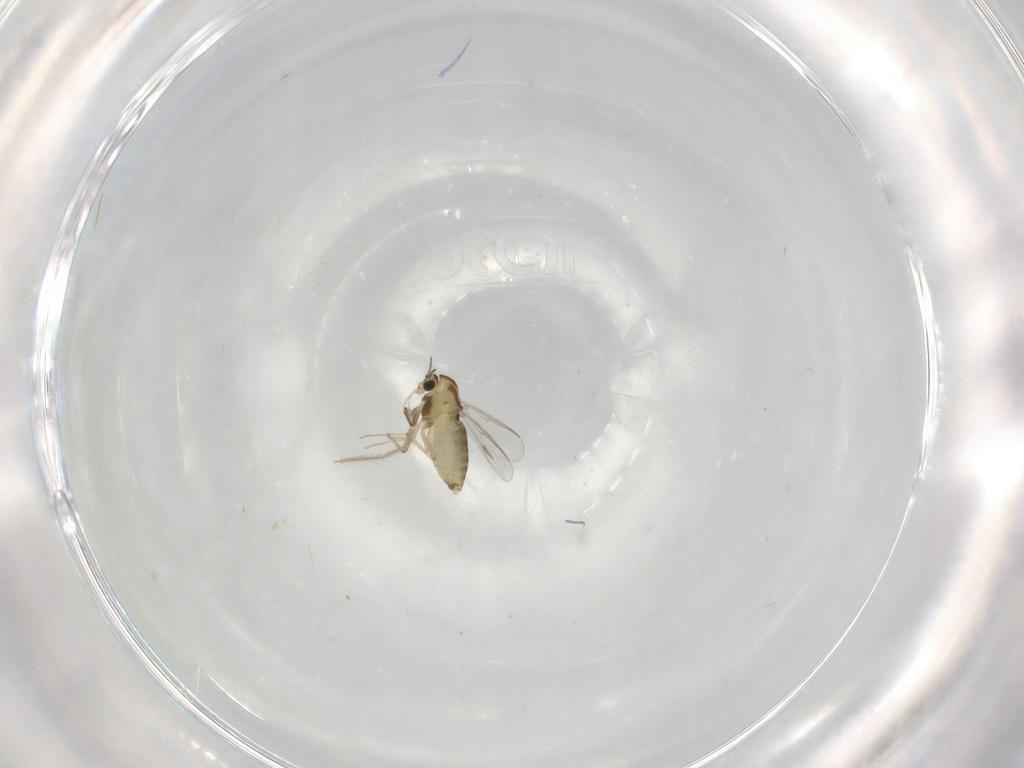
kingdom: Animalia
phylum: Arthropoda
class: Insecta
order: Diptera
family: Chironomidae
